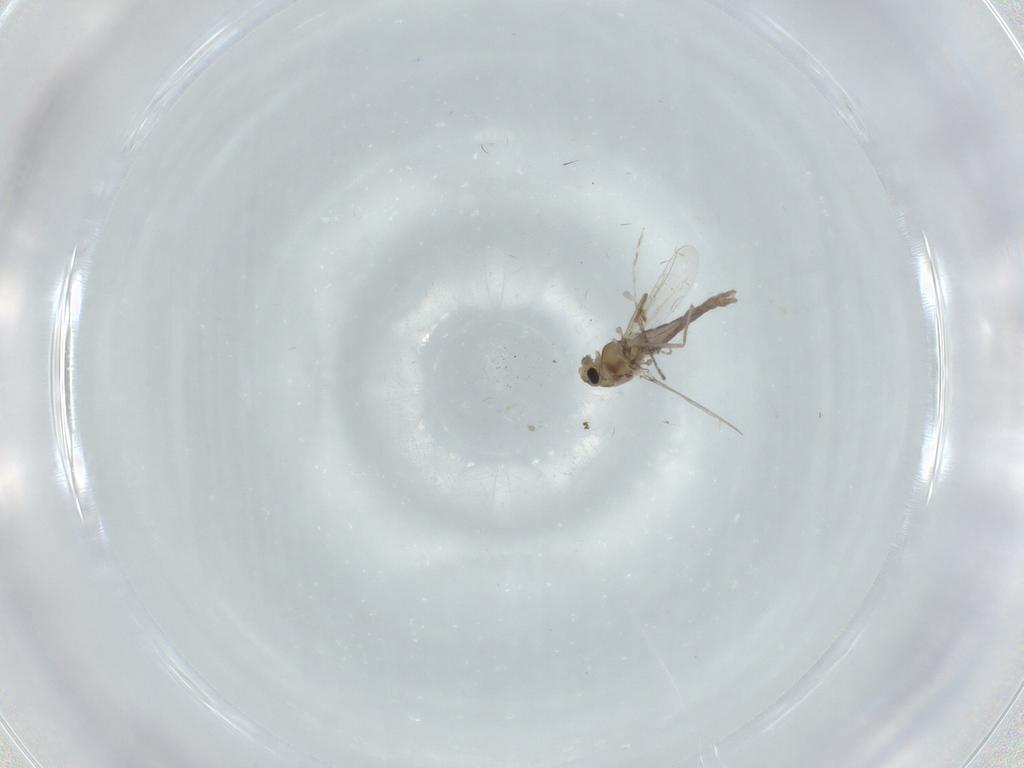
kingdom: Animalia
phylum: Arthropoda
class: Insecta
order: Diptera
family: Chironomidae
